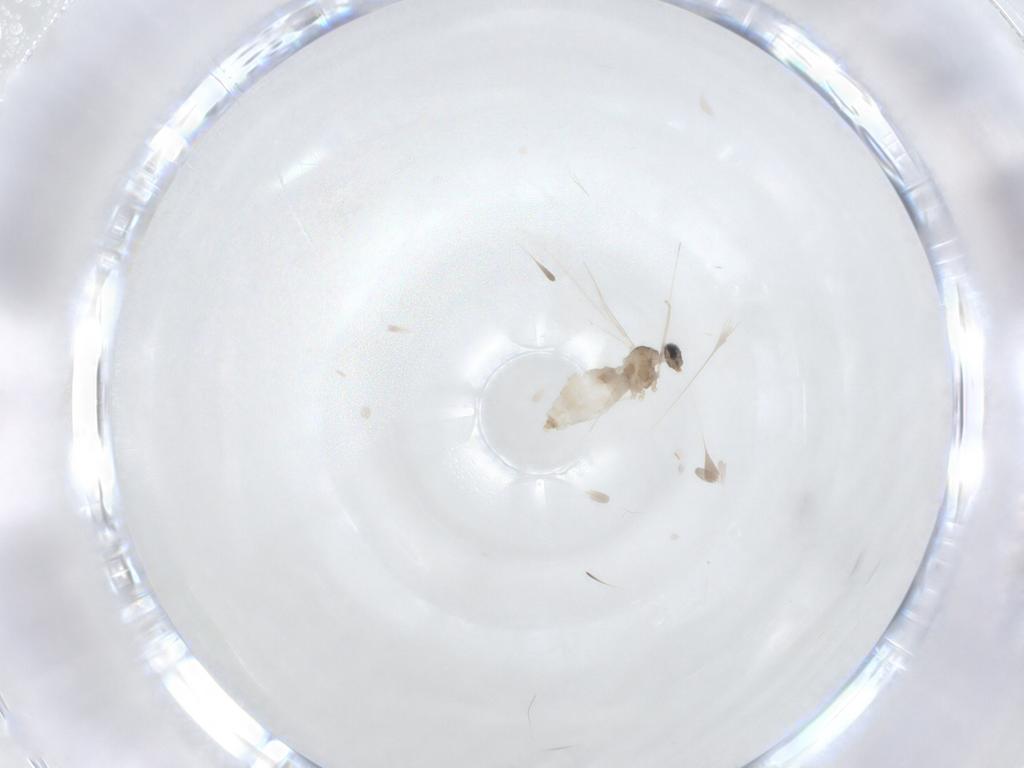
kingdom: Animalia
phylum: Arthropoda
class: Insecta
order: Diptera
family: Cecidomyiidae
